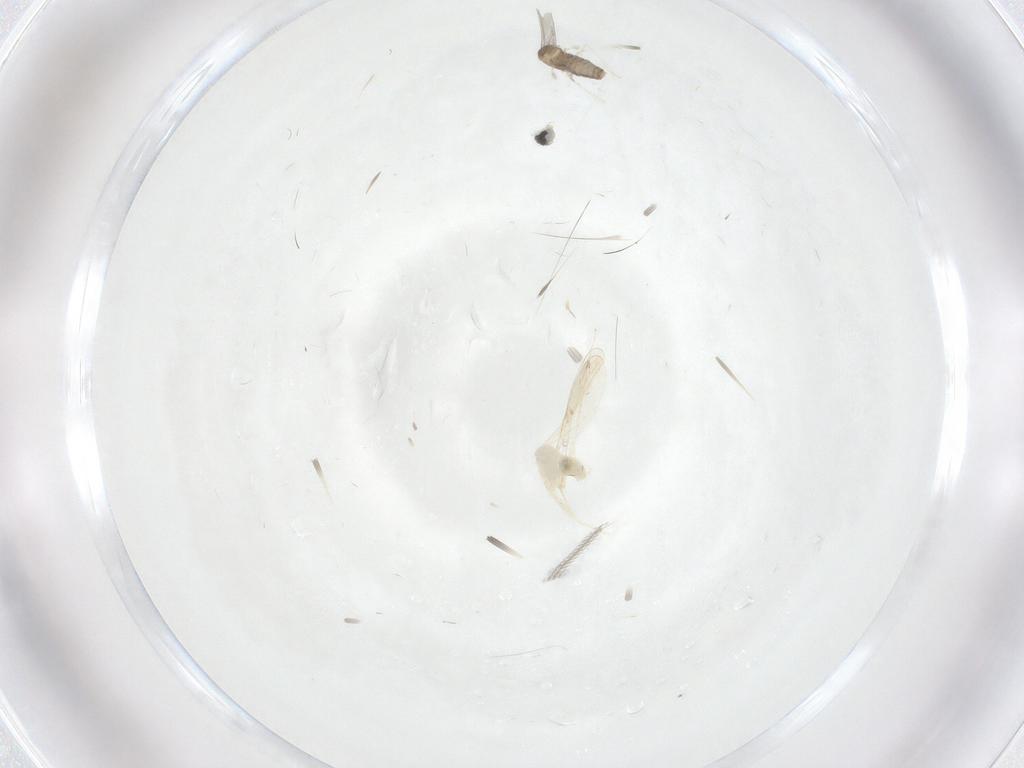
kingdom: Animalia
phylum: Arthropoda
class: Insecta
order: Diptera
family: Cecidomyiidae
